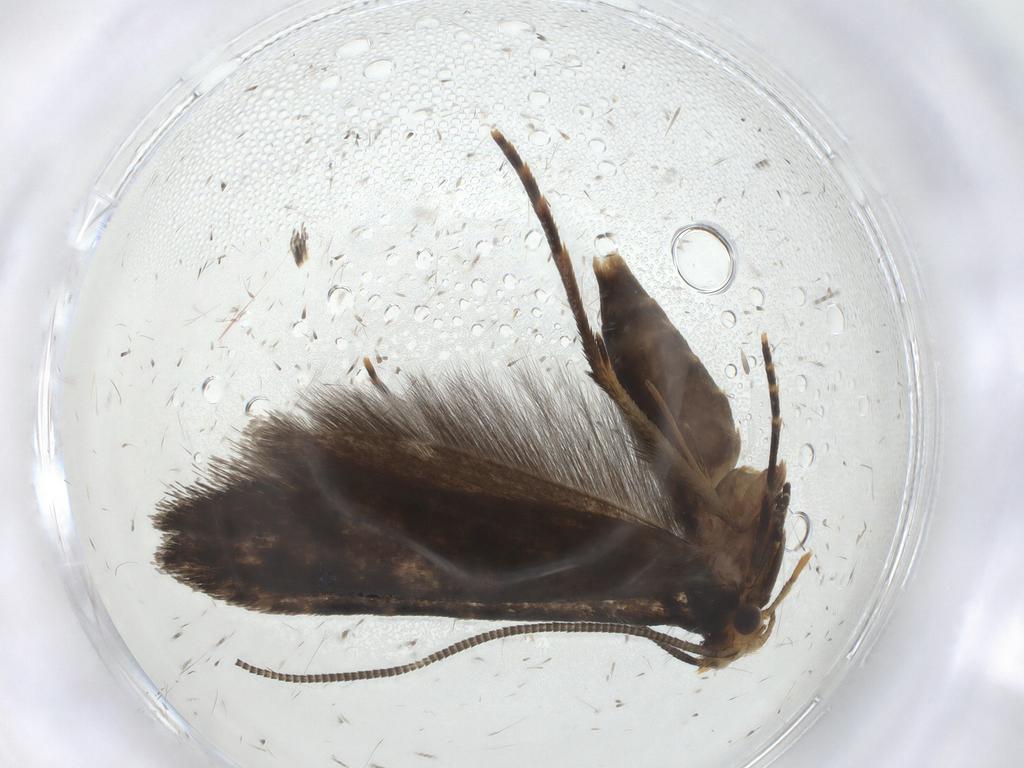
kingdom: Animalia
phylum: Arthropoda
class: Insecta
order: Lepidoptera
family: Tineidae
